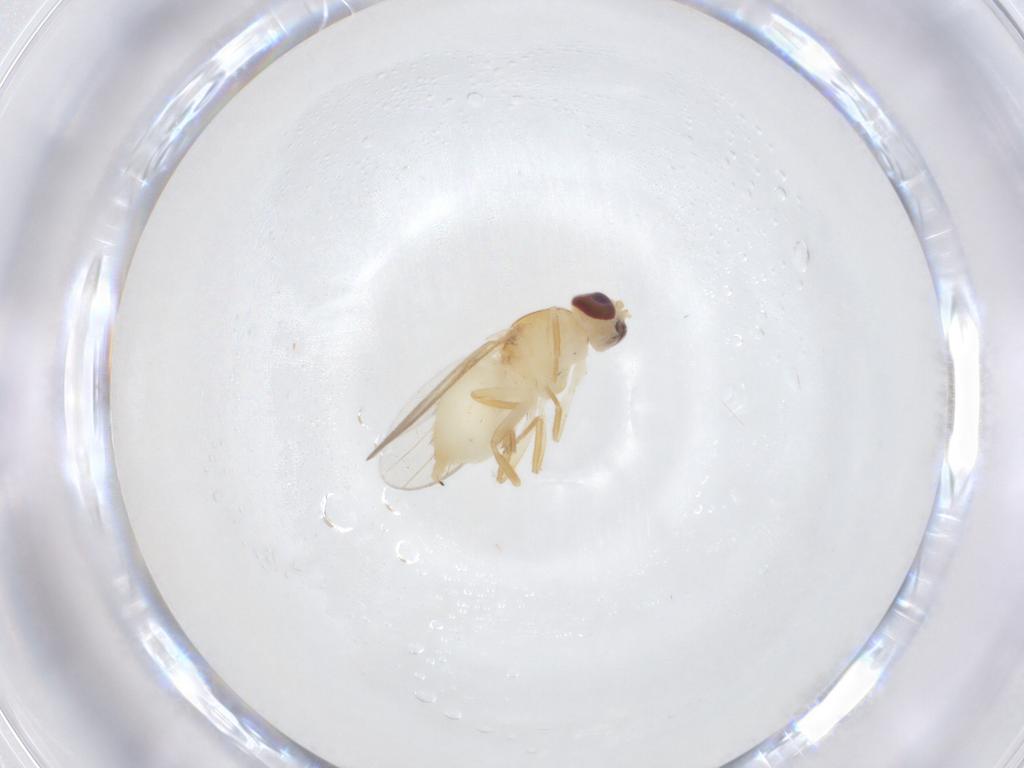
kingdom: Animalia
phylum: Arthropoda
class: Insecta
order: Diptera
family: Chloropidae
